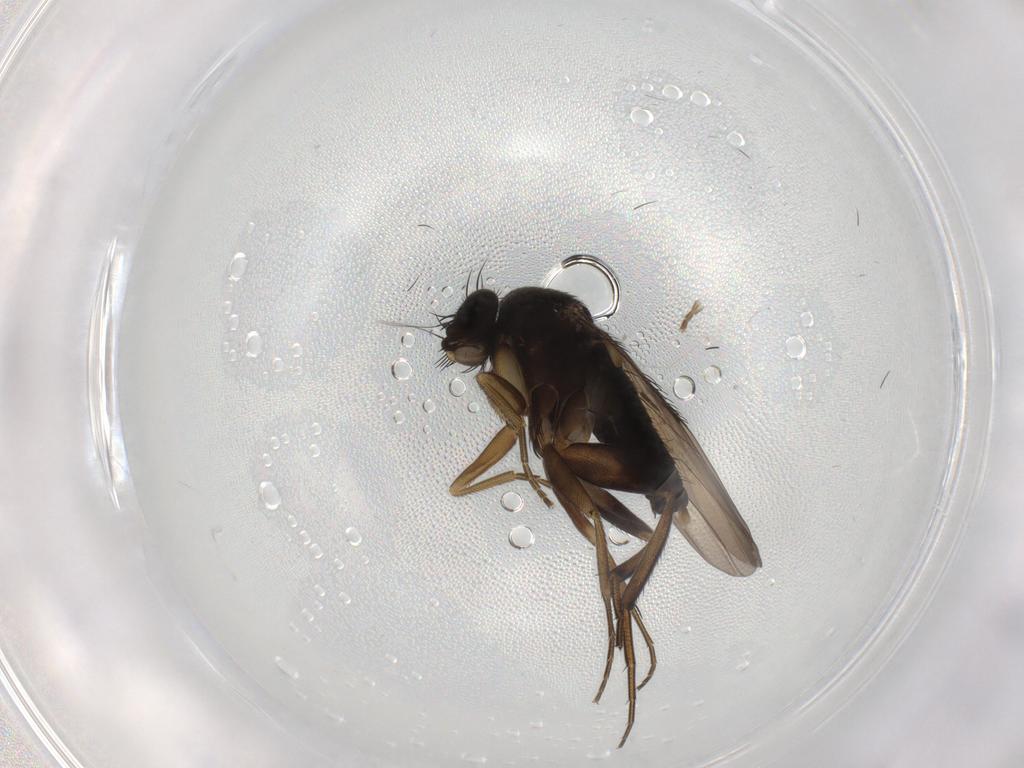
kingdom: Animalia
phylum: Arthropoda
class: Insecta
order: Diptera
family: Phoridae
